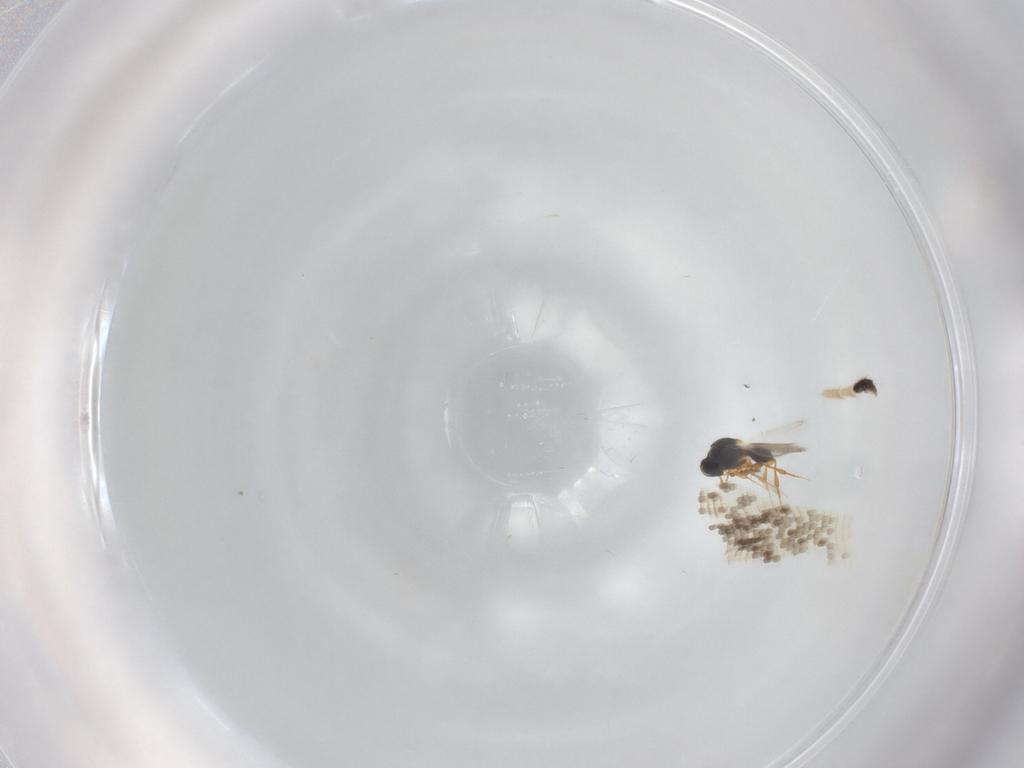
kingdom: Animalia
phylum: Arthropoda
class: Insecta
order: Hymenoptera
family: Platygastridae
